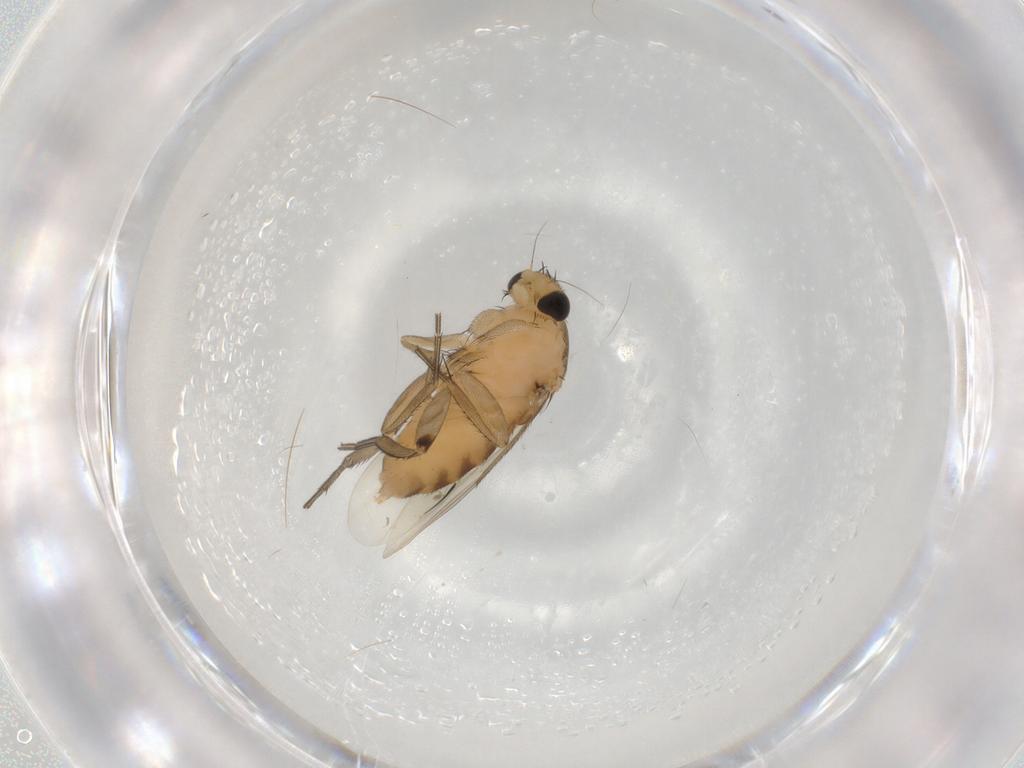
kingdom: Animalia
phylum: Arthropoda
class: Insecta
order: Diptera
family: Phoridae
